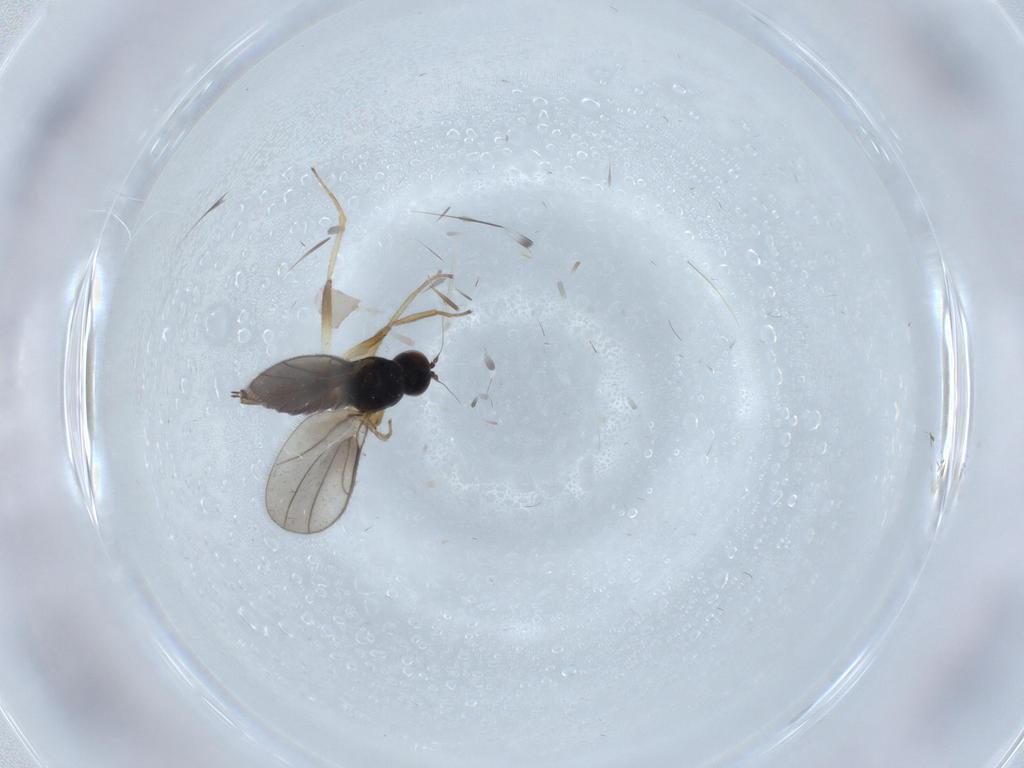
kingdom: Animalia
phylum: Arthropoda
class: Insecta
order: Diptera
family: Hybotidae
